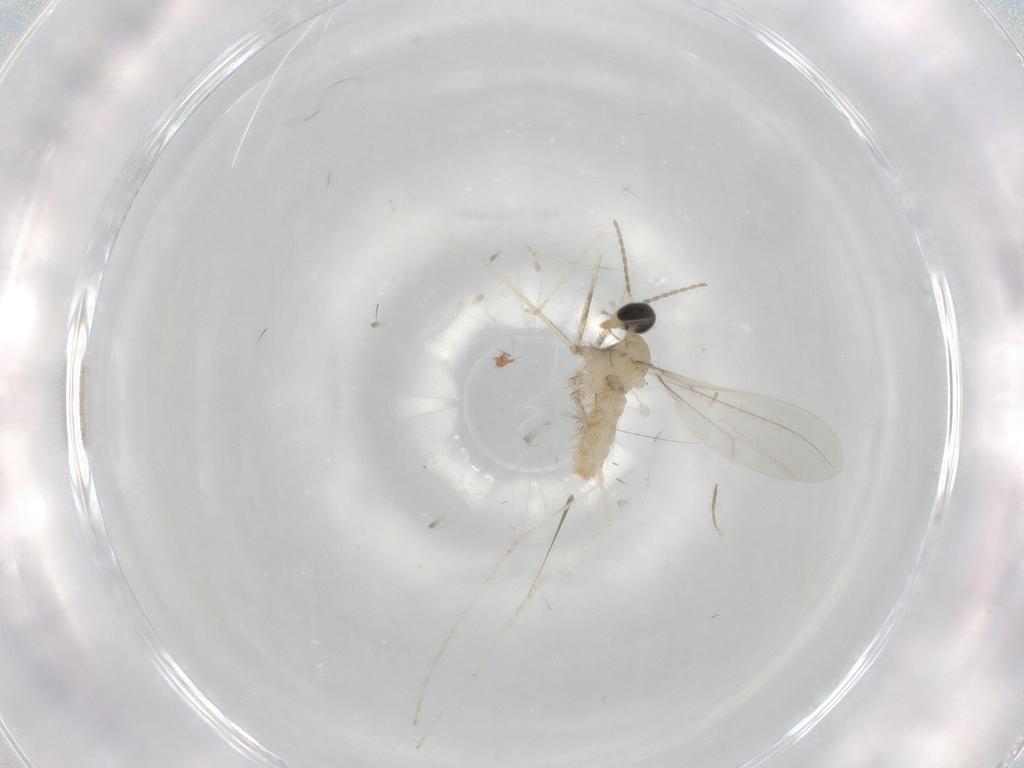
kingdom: Animalia
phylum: Arthropoda
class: Insecta
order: Diptera
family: Cecidomyiidae
